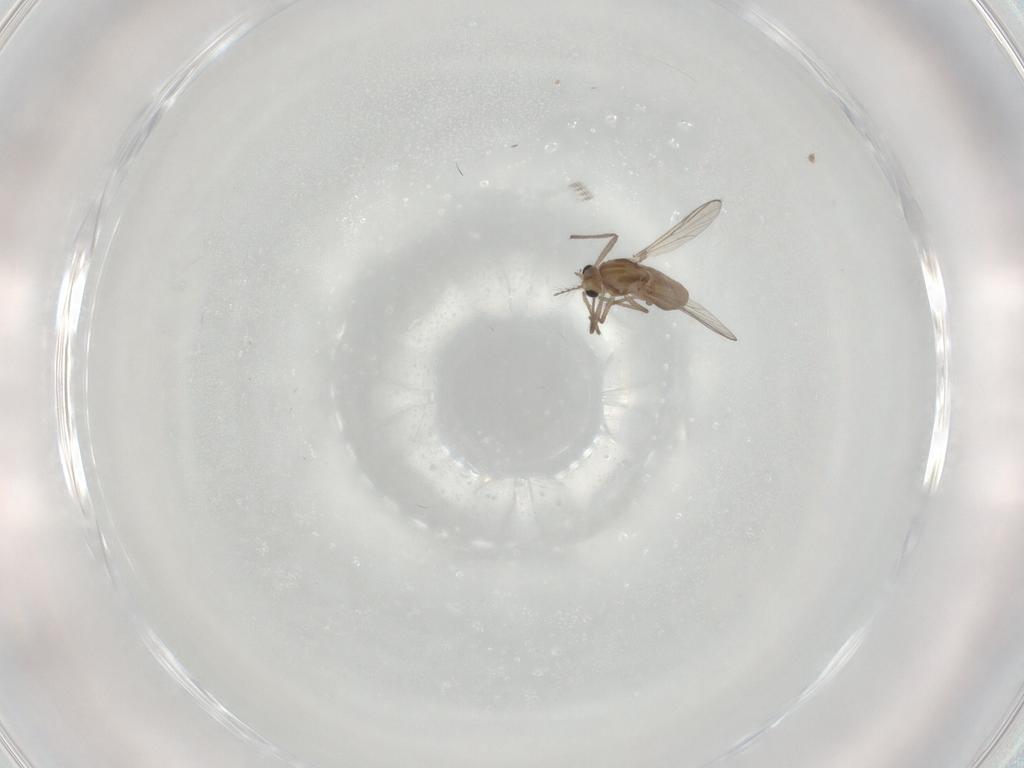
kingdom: Animalia
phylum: Arthropoda
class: Insecta
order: Diptera
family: Chironomidae
